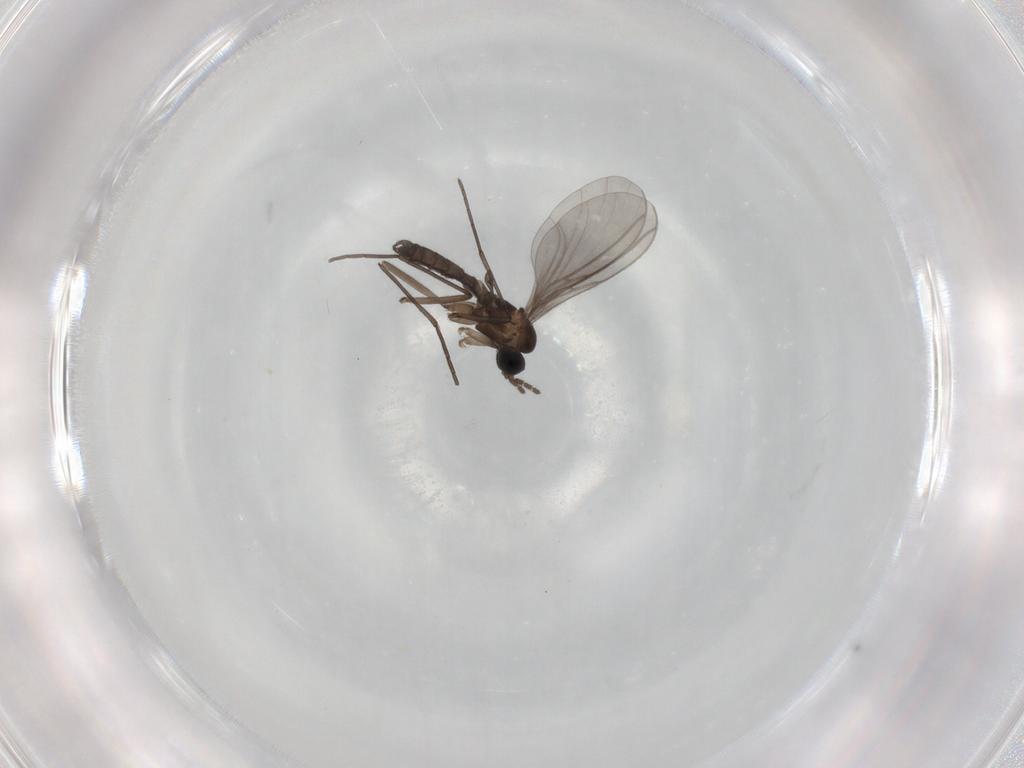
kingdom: Animalia
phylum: Arthropoda
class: Insecta
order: Diptera
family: Sciaridae
